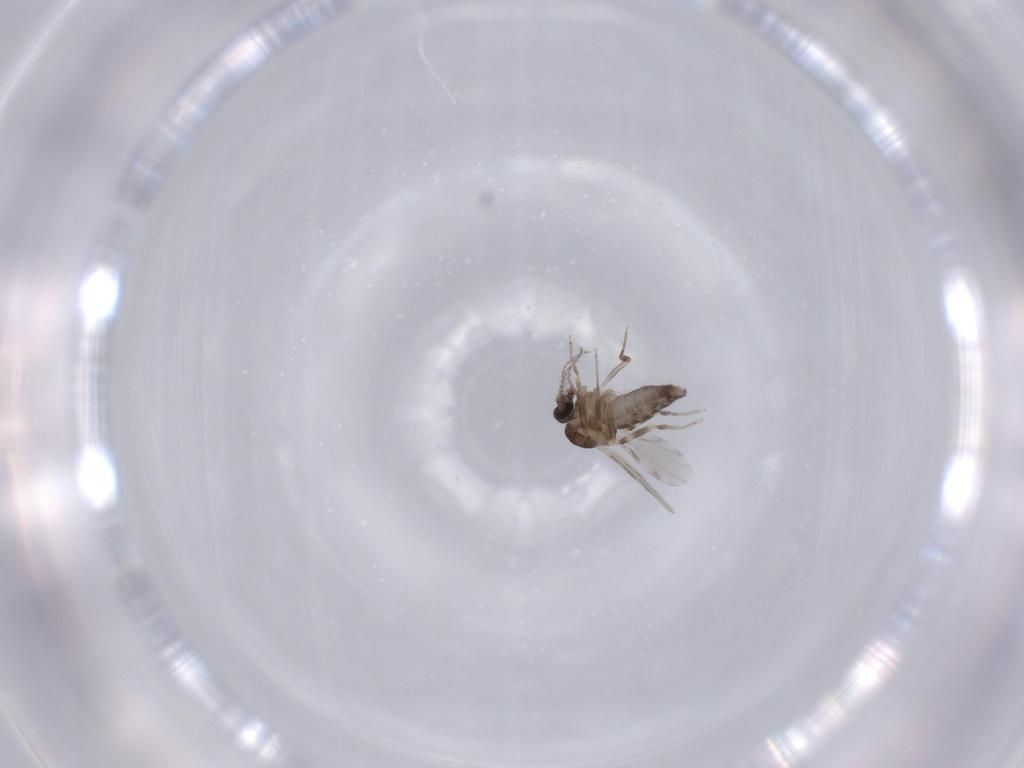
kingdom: Animalia
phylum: Arthropoda
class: Insecta
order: Diptera
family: Ceratopogonidae
